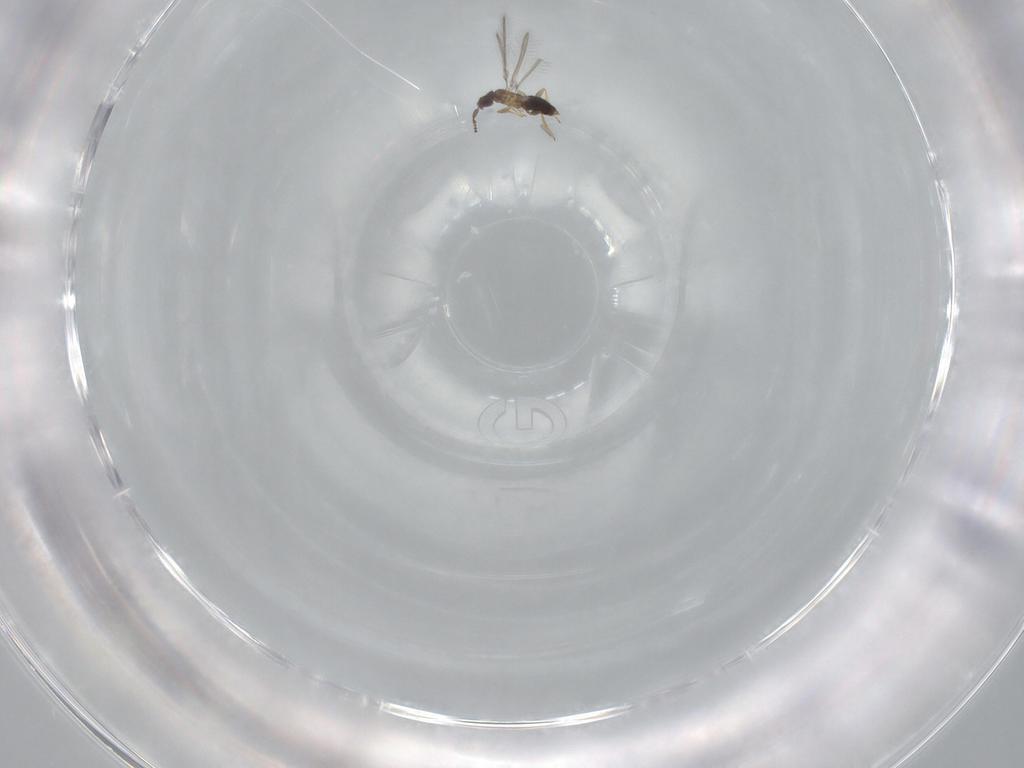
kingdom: Animalia
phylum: Arthropoda
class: Insecta
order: Hymenoptera
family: Mymaridae
